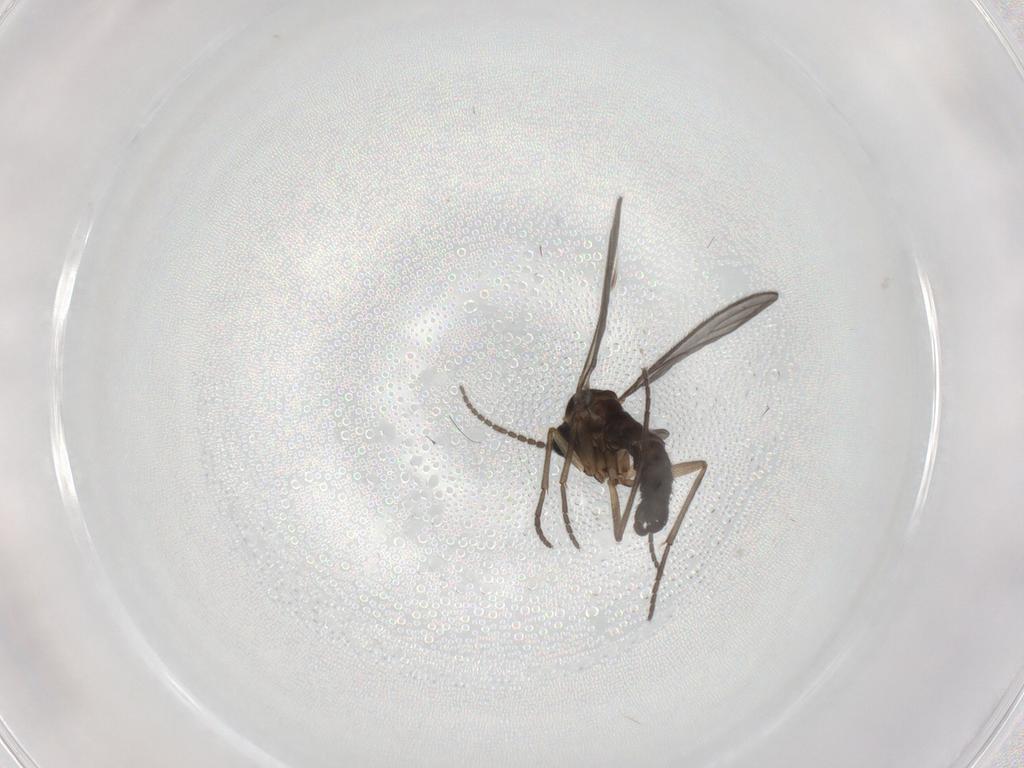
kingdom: Animalia
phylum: Arthropoda
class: Insecta
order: Diptera
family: Sciaridae
